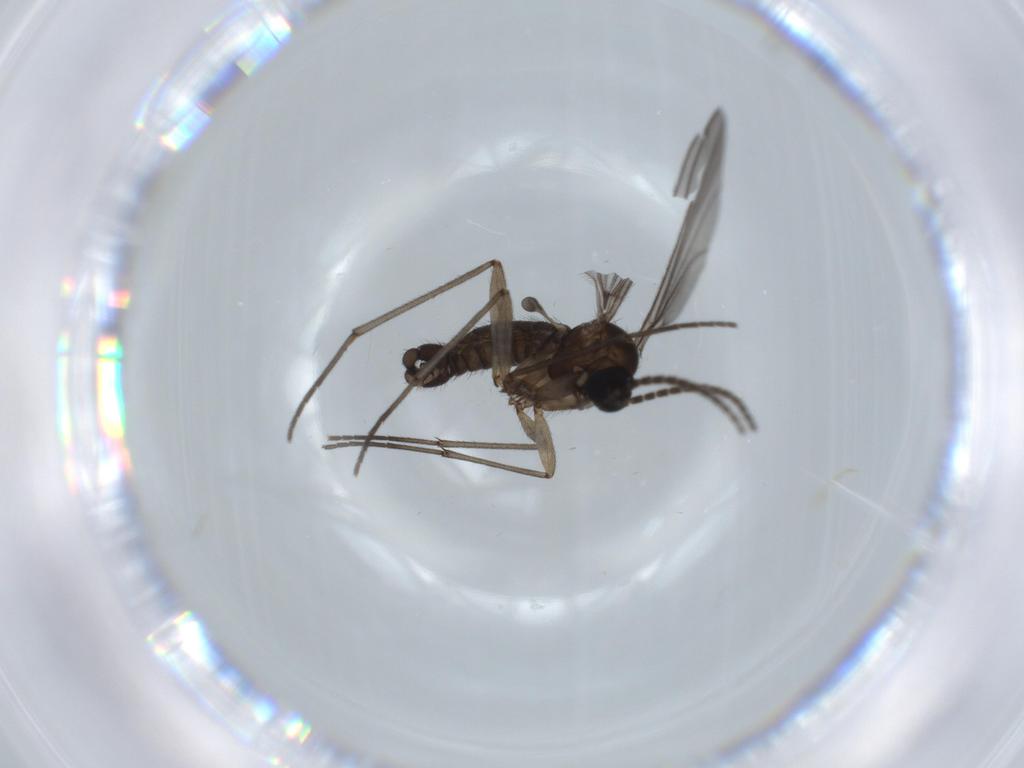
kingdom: Animalia
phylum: Arthropoda
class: Insecta
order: Diptera
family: Sciaridae
